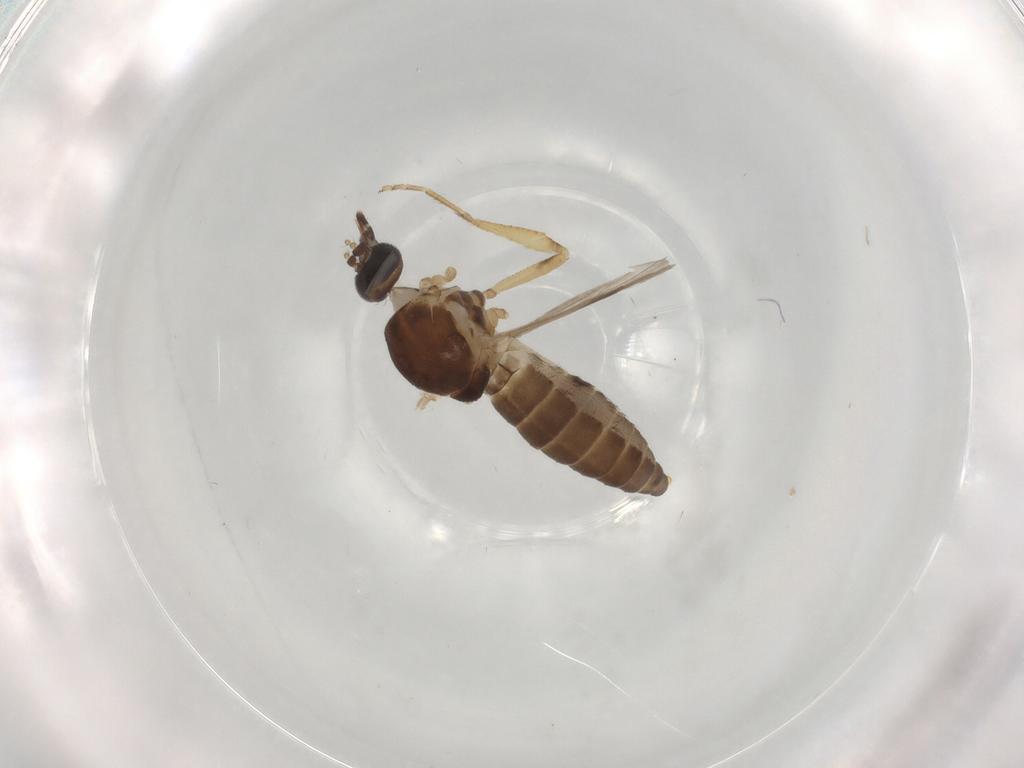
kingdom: Animalia
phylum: Arthropoda
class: Insecta
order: Diptera
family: Ceratopogonidae
